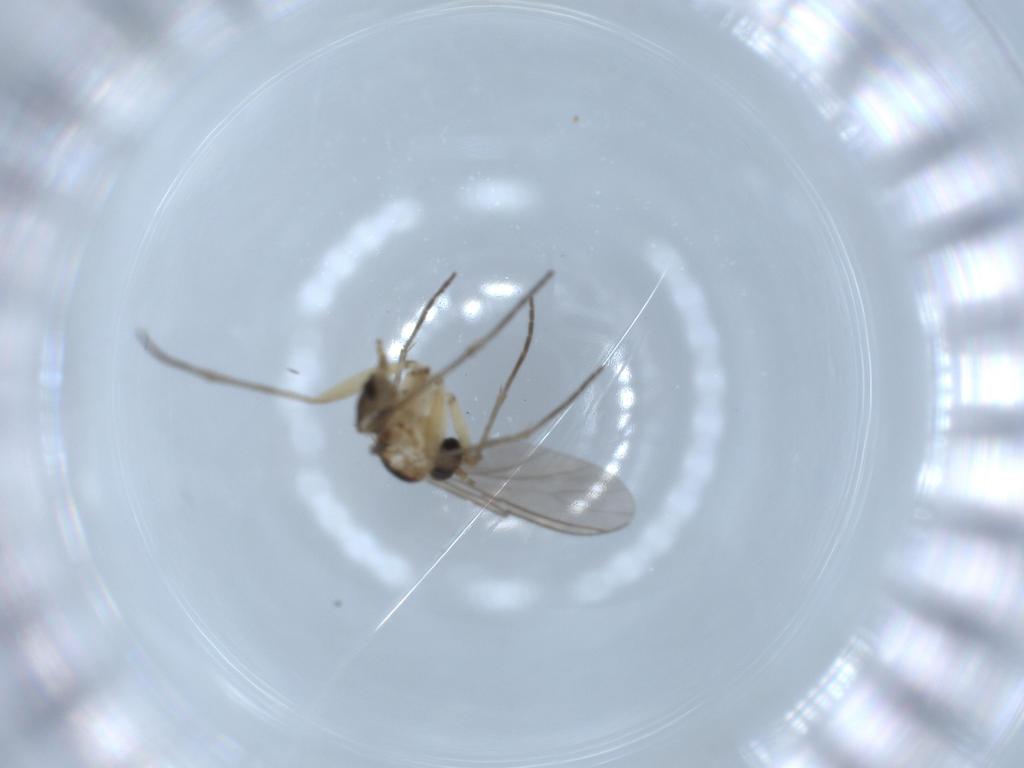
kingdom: Animalia
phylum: Arthropoda
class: Insecta
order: Diptera
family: Sciaridae
